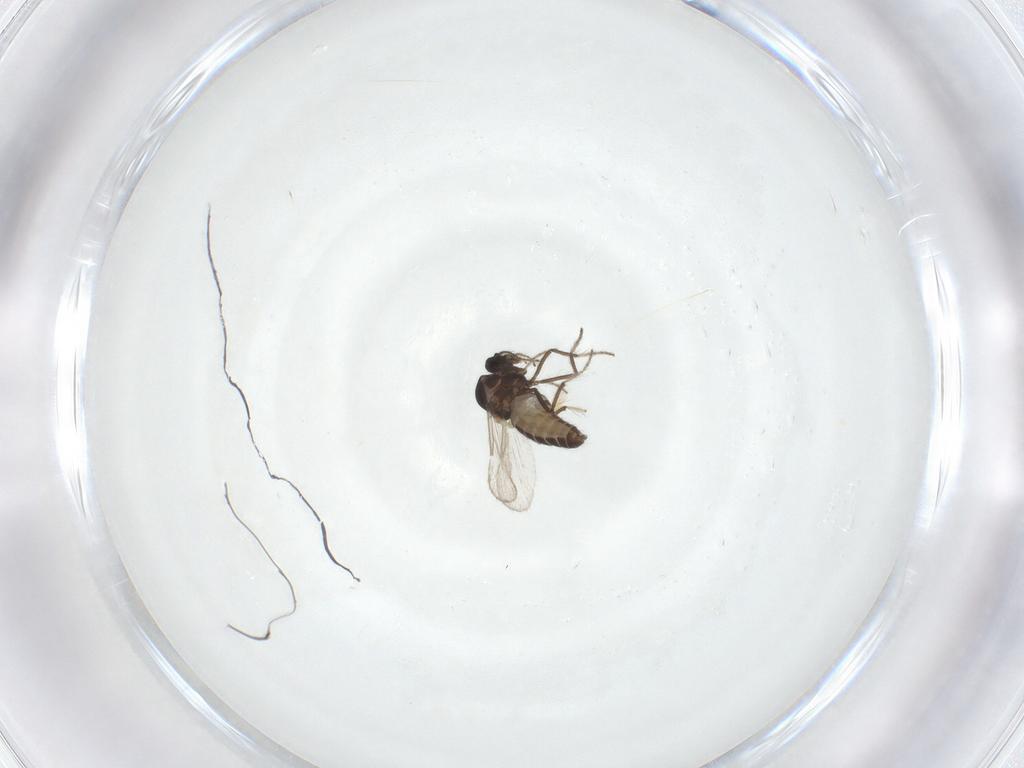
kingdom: Animalia
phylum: Arthropoda
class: Insecta
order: Diptera
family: Ceratopogonidae
